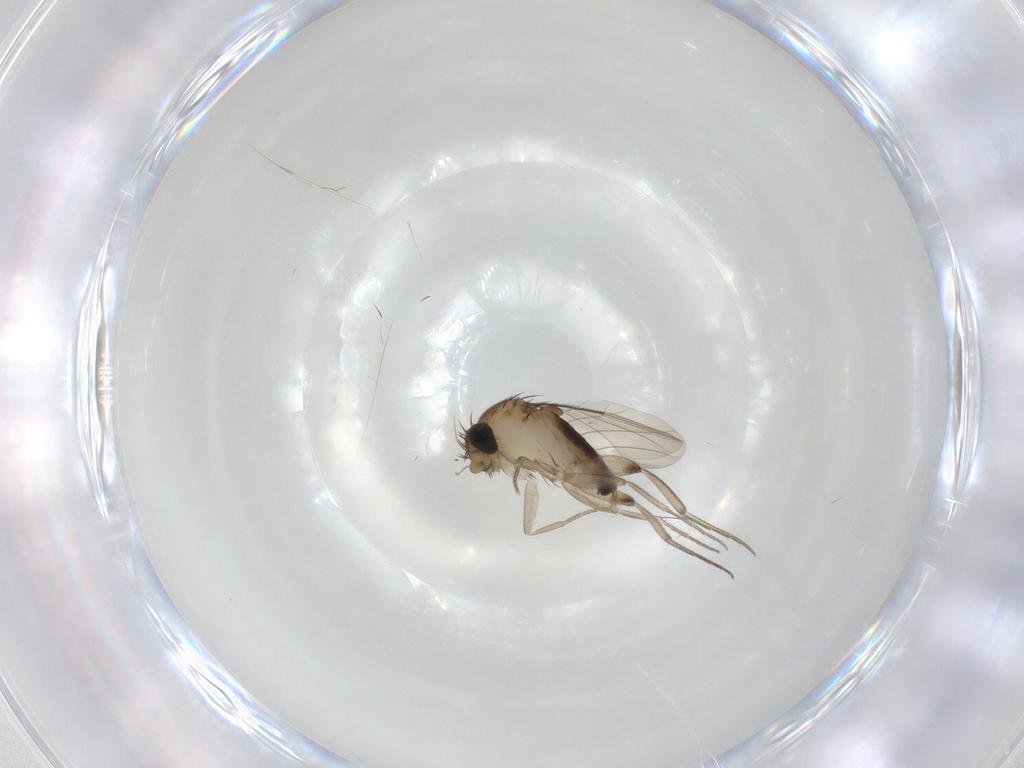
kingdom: Animalia
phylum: Arthropoda
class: Insecta
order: Diptera
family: Phoridae
